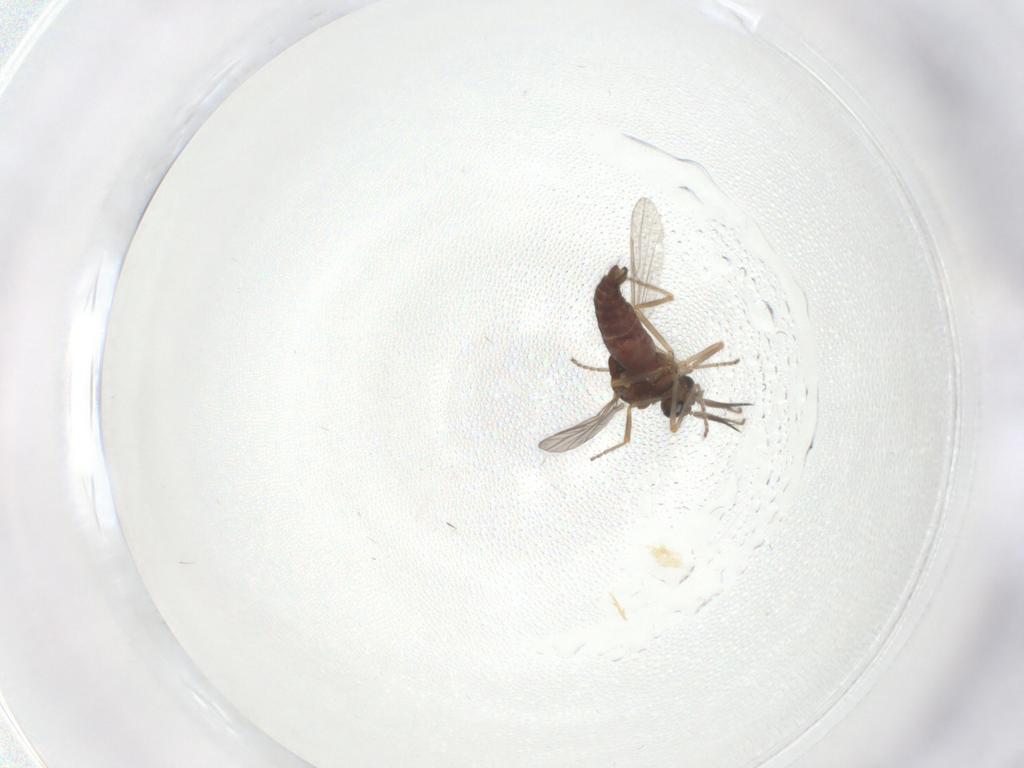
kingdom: Animalia
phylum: Arthropoda
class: Insecta
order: Diptera
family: Ceratopogonidae
